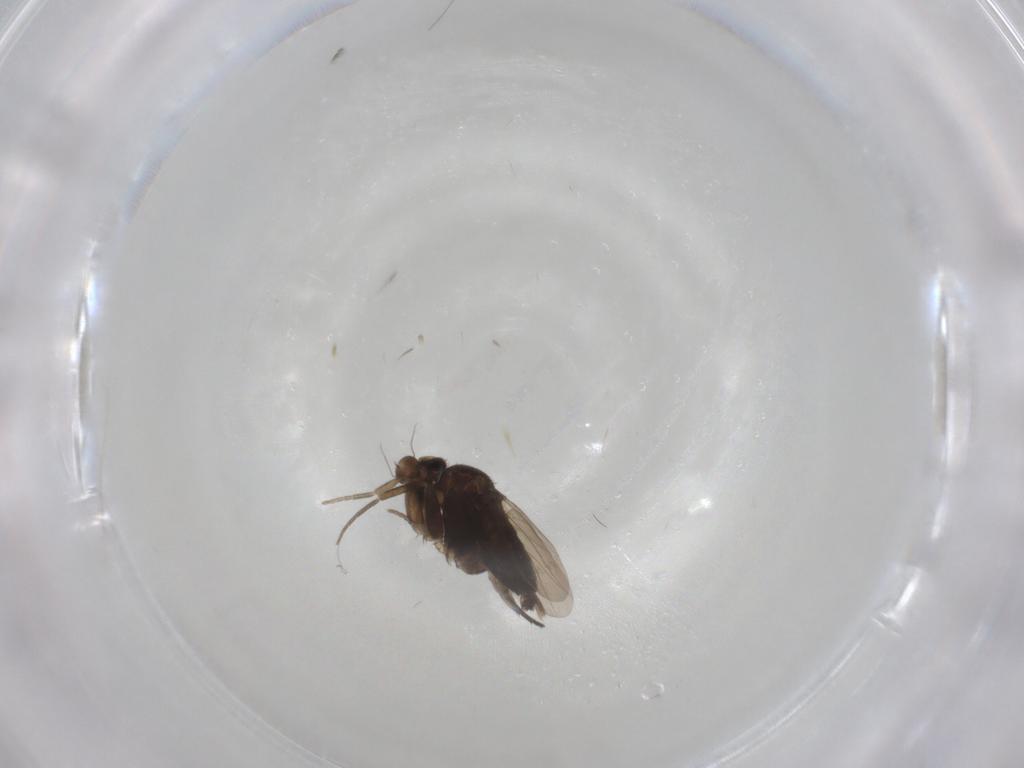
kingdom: Animalia
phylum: Arthropoda
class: Insecta
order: Diptera
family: Phoridae
